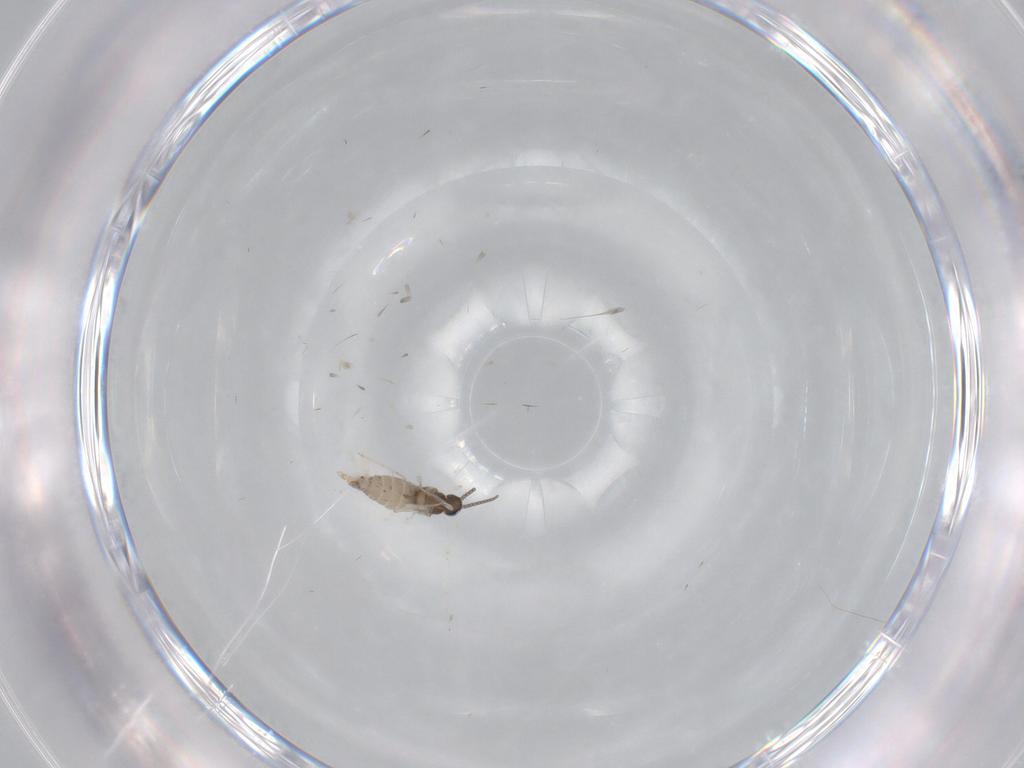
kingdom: Animalia
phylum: Arthropoda
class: Insecta
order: Diptera
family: Cecidomyiidae
